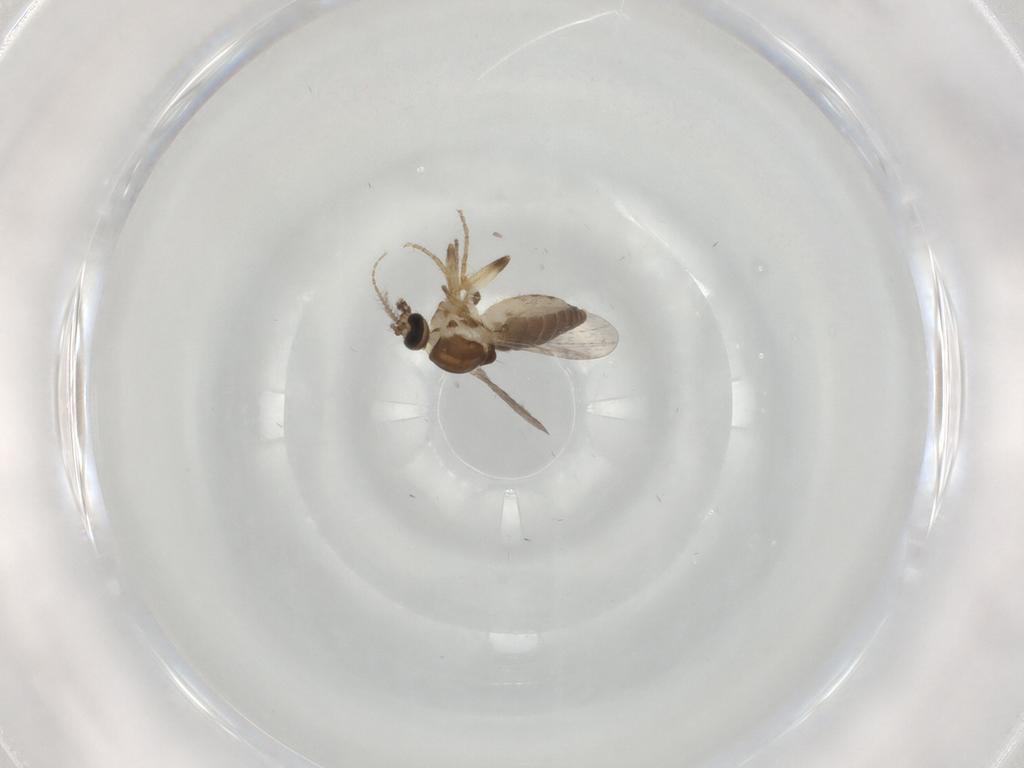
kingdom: Animalia
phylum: Arthropoda
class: Insecta
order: Diptera
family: Ceratopogonidae
